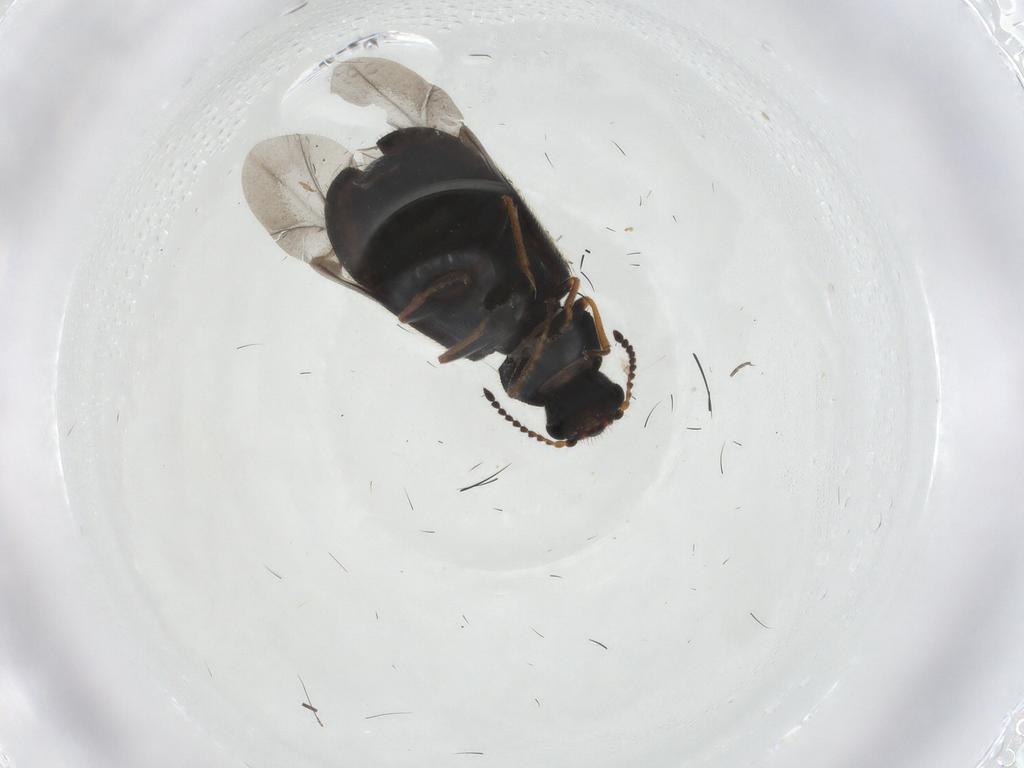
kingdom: Animalia
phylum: Arthropoda
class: Insecta
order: Coleoptera
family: Melyridae
